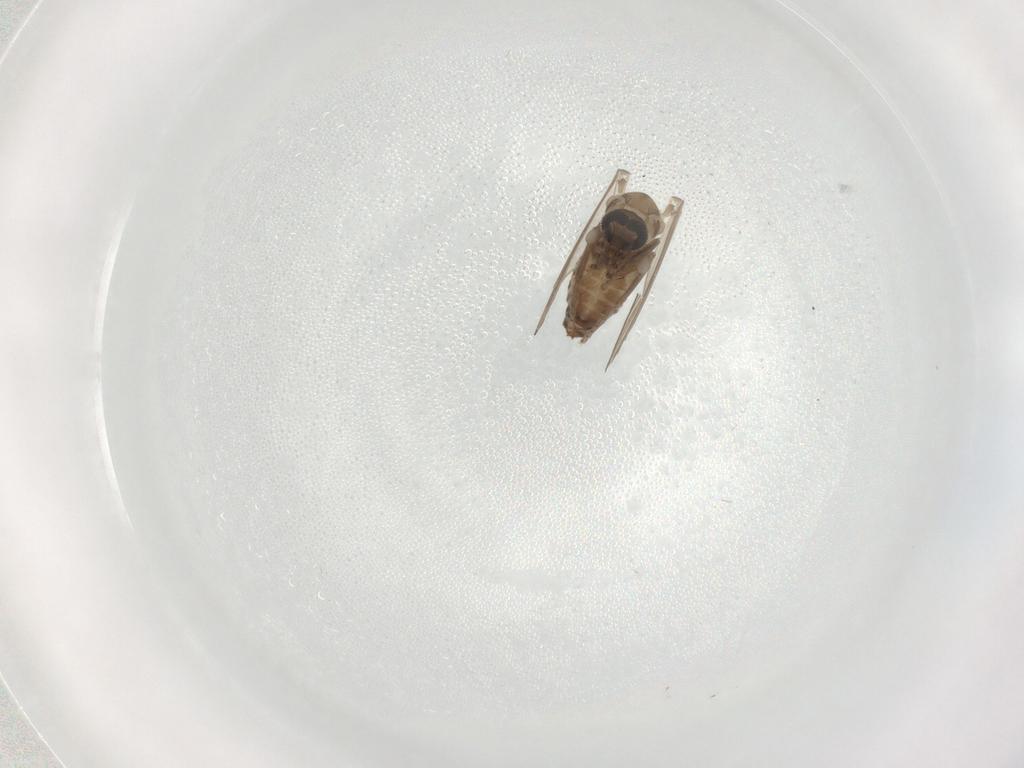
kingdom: Animalia
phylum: Arthropoda
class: Insecta
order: Diptera
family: Psychodidae
